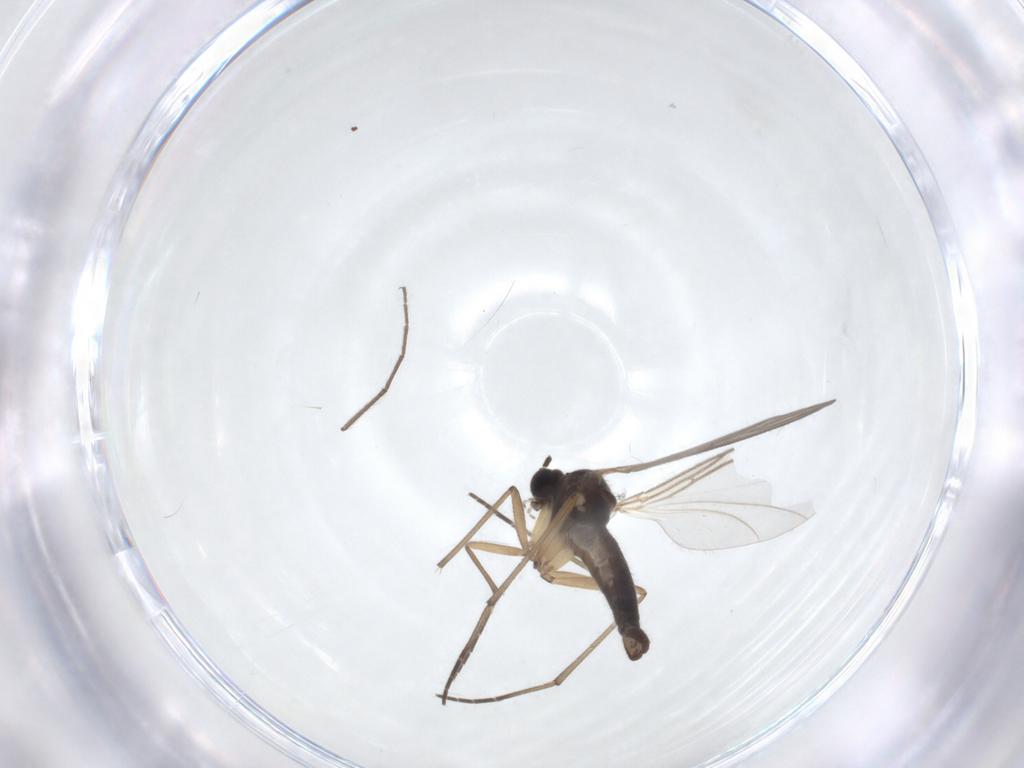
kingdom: Animalia
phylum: Arthropoda
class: Insecta
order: Diptera
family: Sciaridae
